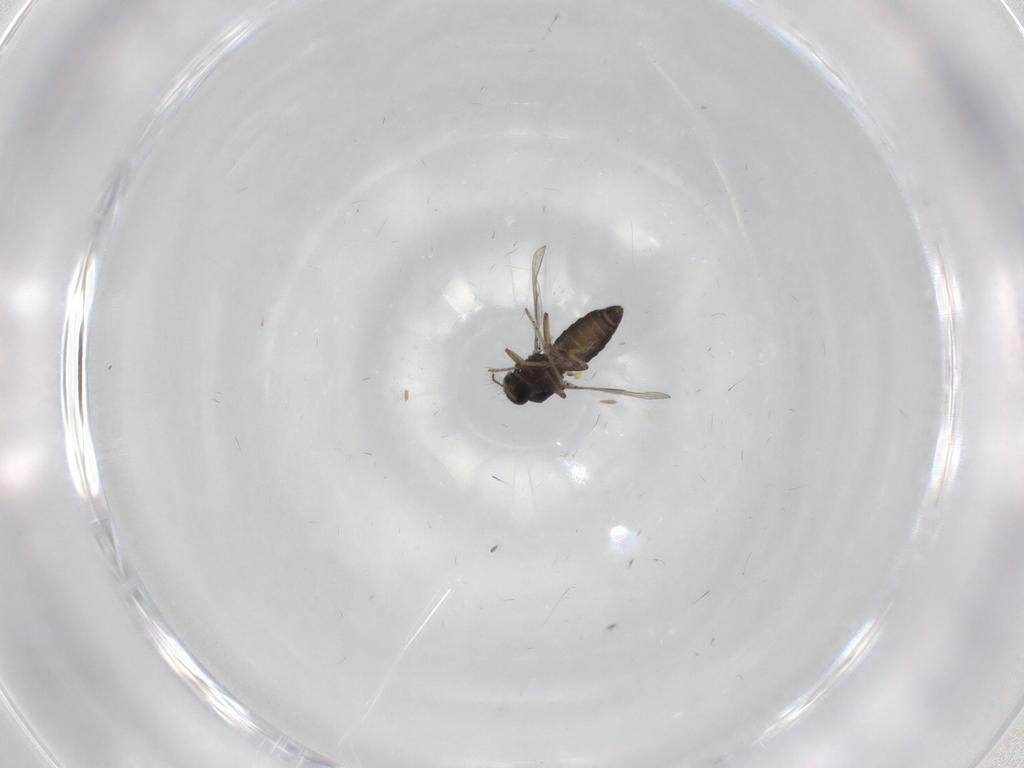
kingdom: Animalia
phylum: Arthropoda
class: Insecta
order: Diptera
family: Ceratopogonidae
